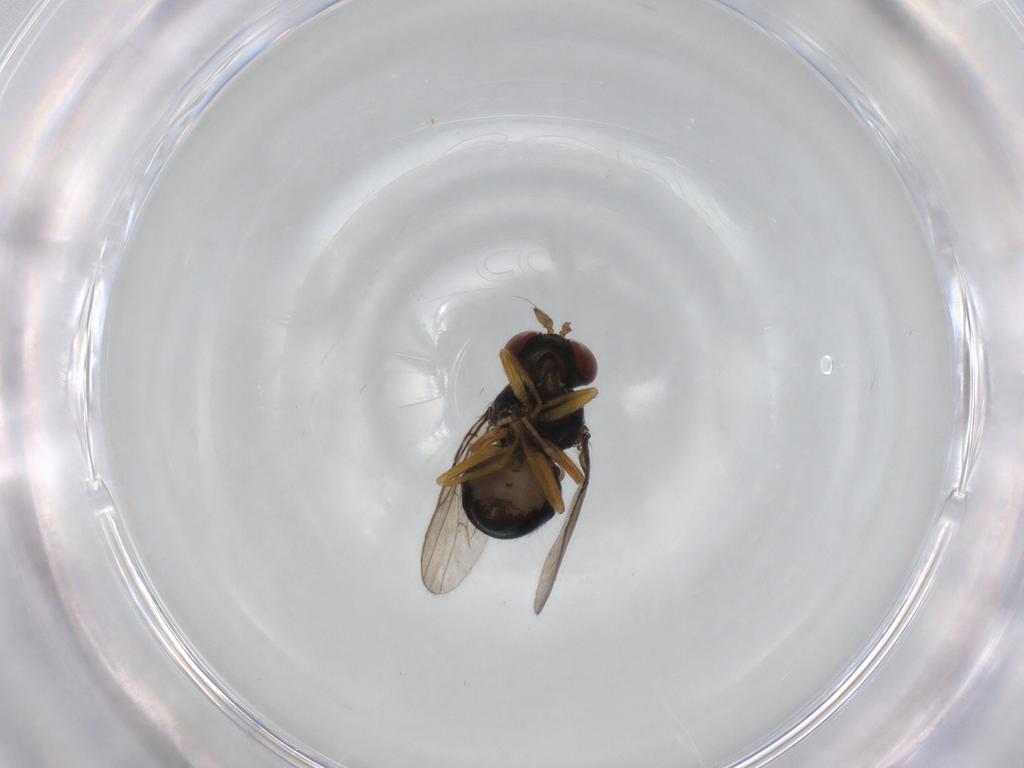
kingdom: Animalia
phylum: Arthropoda
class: Insecta
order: Diptera
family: Ephydridae
